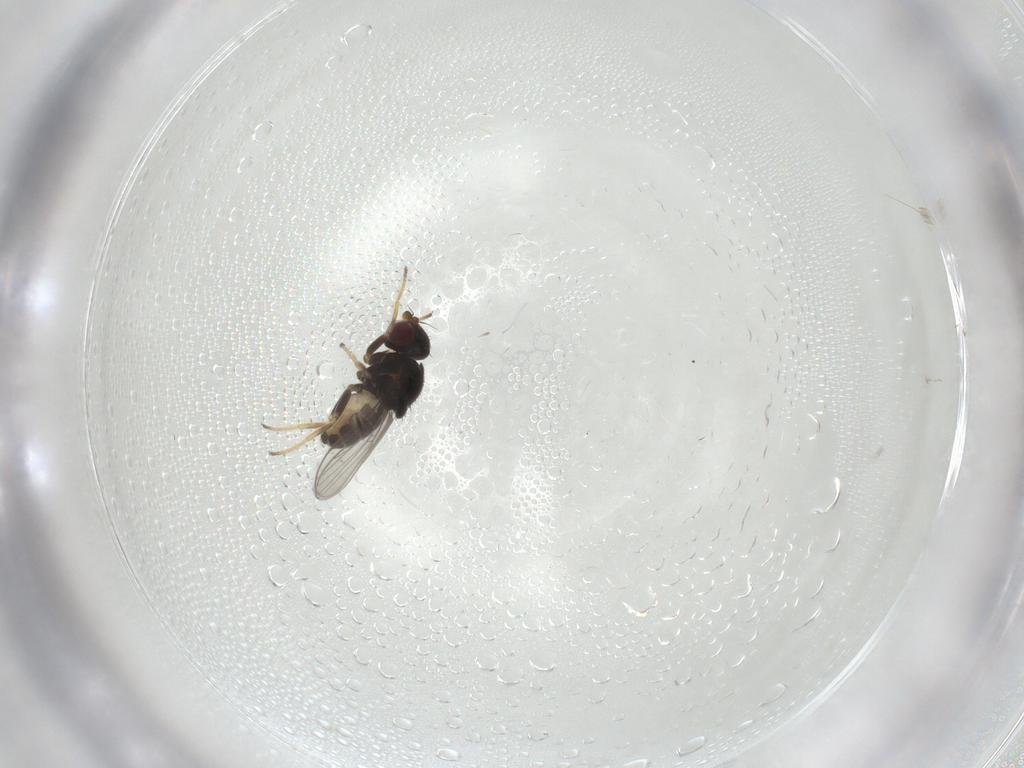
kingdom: Animalia
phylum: Arthropoda
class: Insecta
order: Diptera
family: Chloropidae
